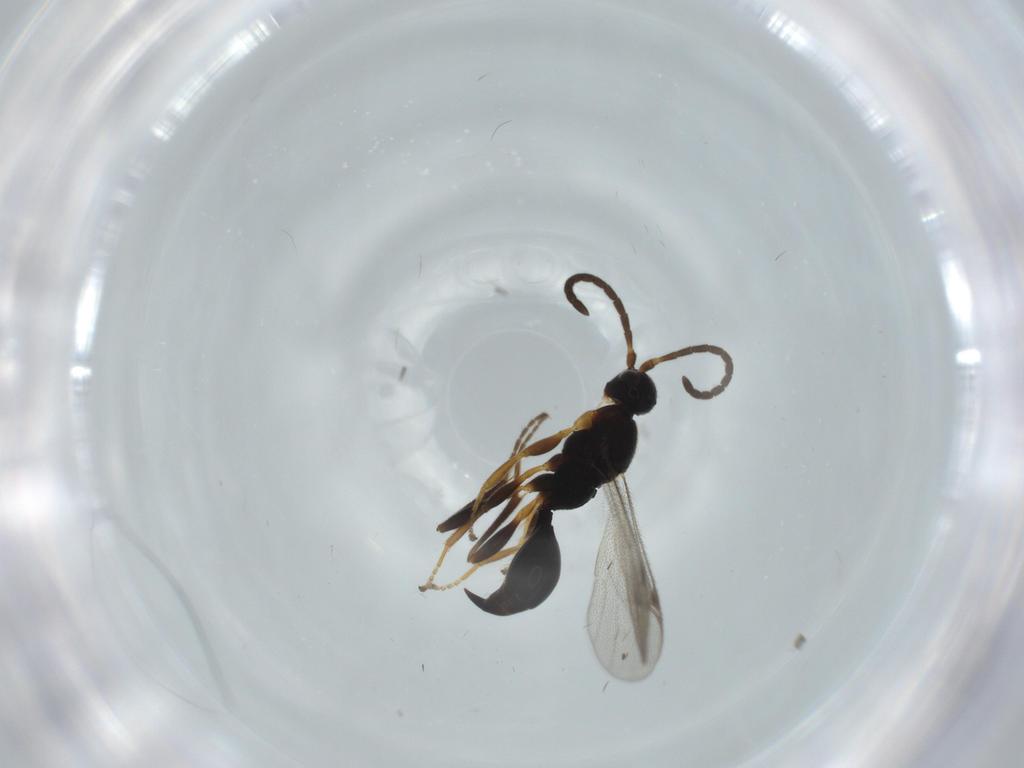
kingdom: Animalia
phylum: Arthropoda
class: Insecta
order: Hymenoptera
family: Proctotrupidae
